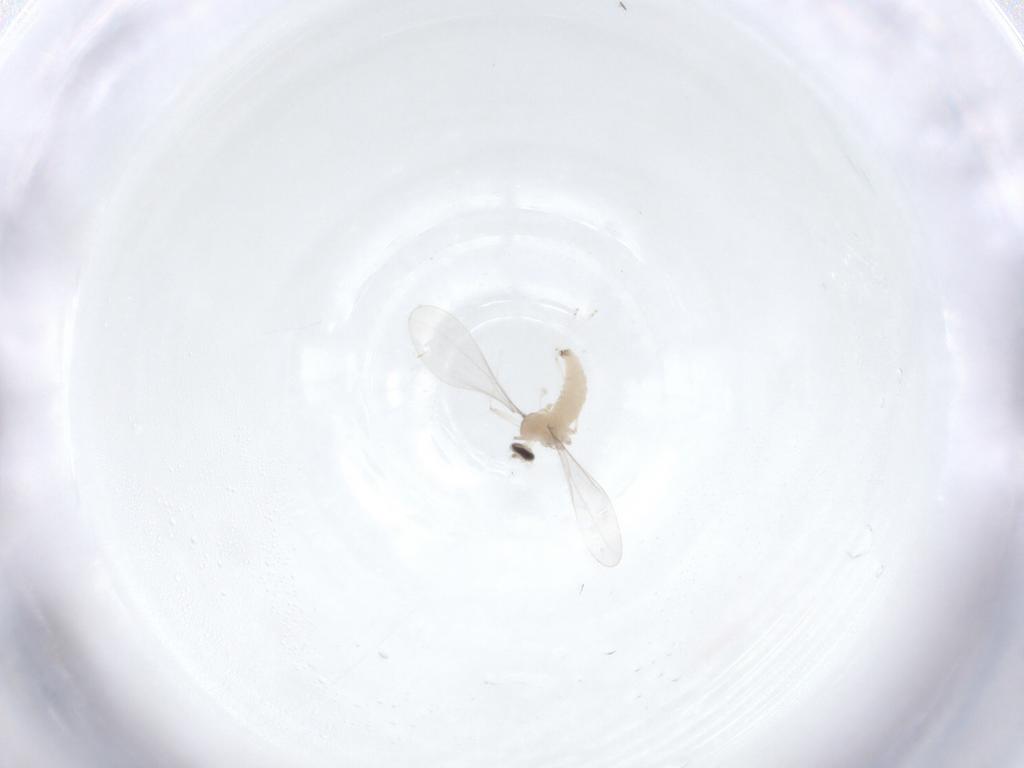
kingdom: Animalia
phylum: Arthropoda
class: Insecta
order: Diptera
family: Cecidomyiidae
